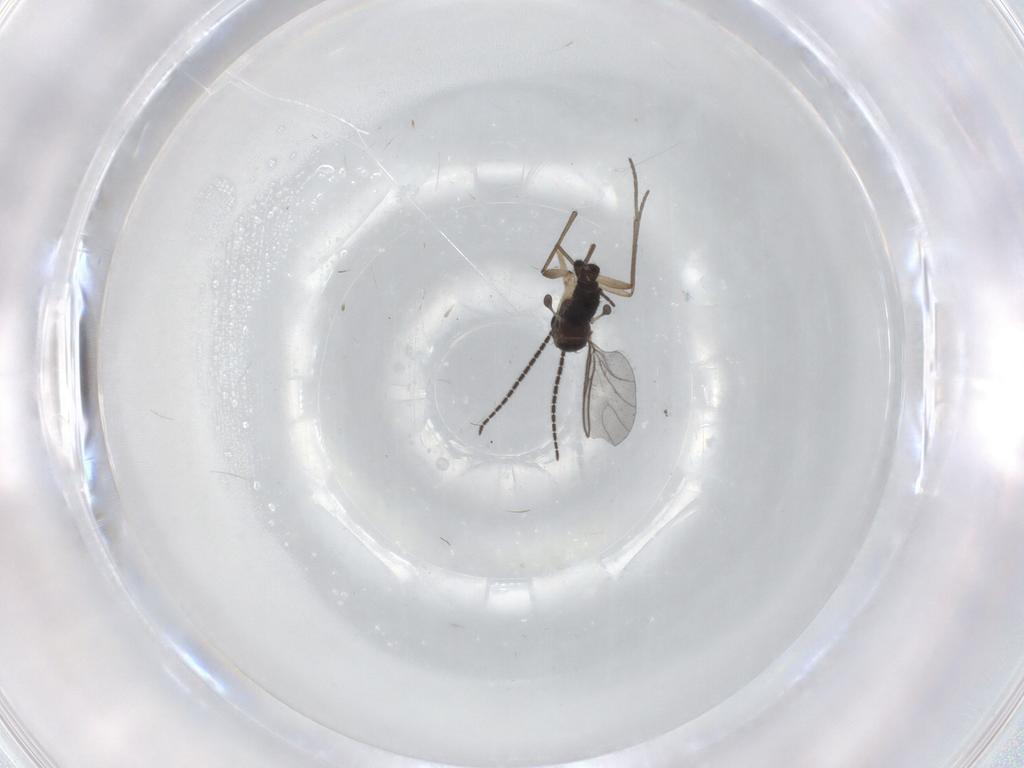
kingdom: Animalia
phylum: Arthropoda
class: Insecta
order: Diptera
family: Sciaridae
